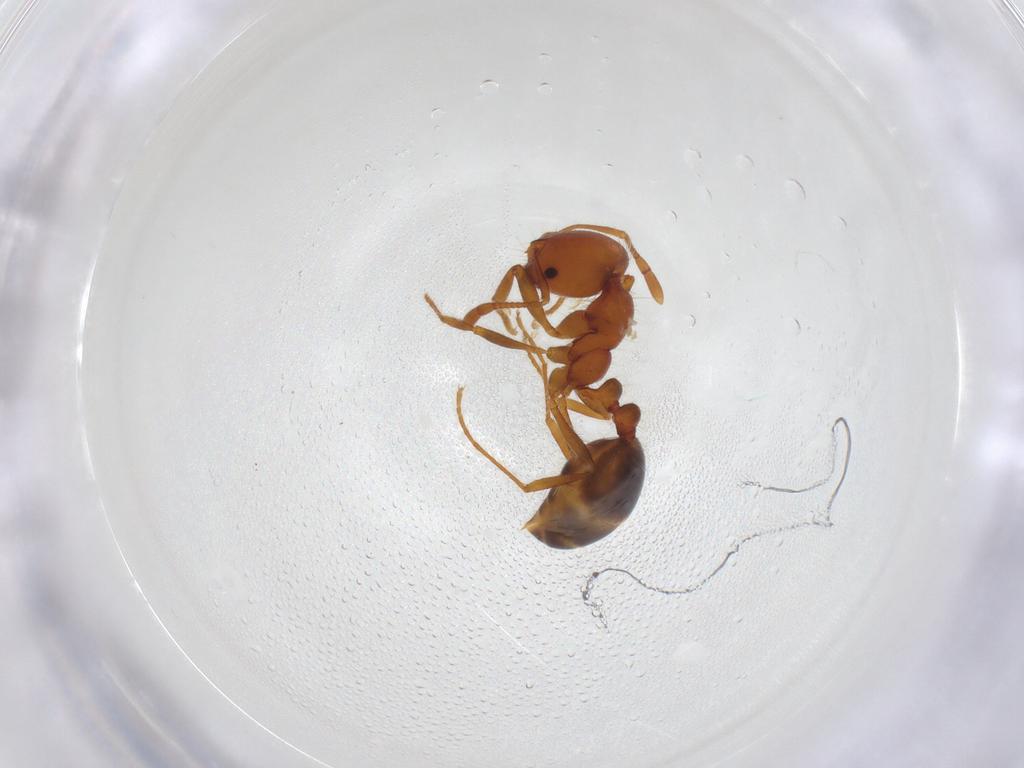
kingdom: Animalia
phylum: Arthropoda
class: Insecta
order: Hymenoptera
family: Formicidae
